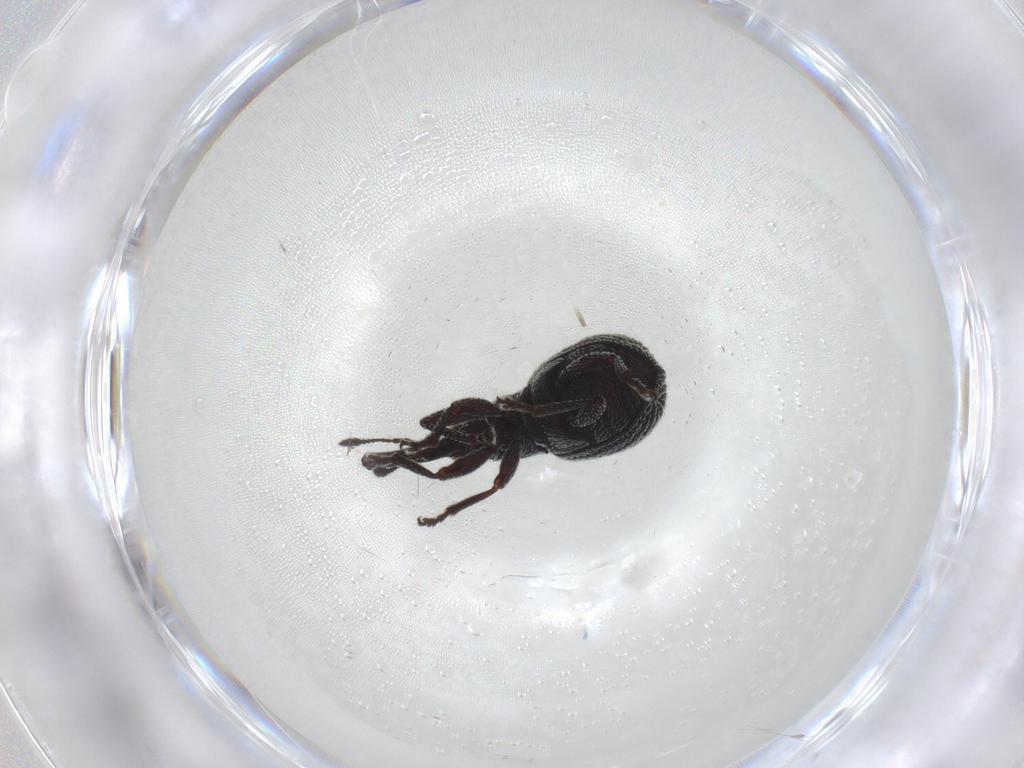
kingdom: Animalia
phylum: Arthropoda
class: Insecta
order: Coleoptera
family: Brentidae
